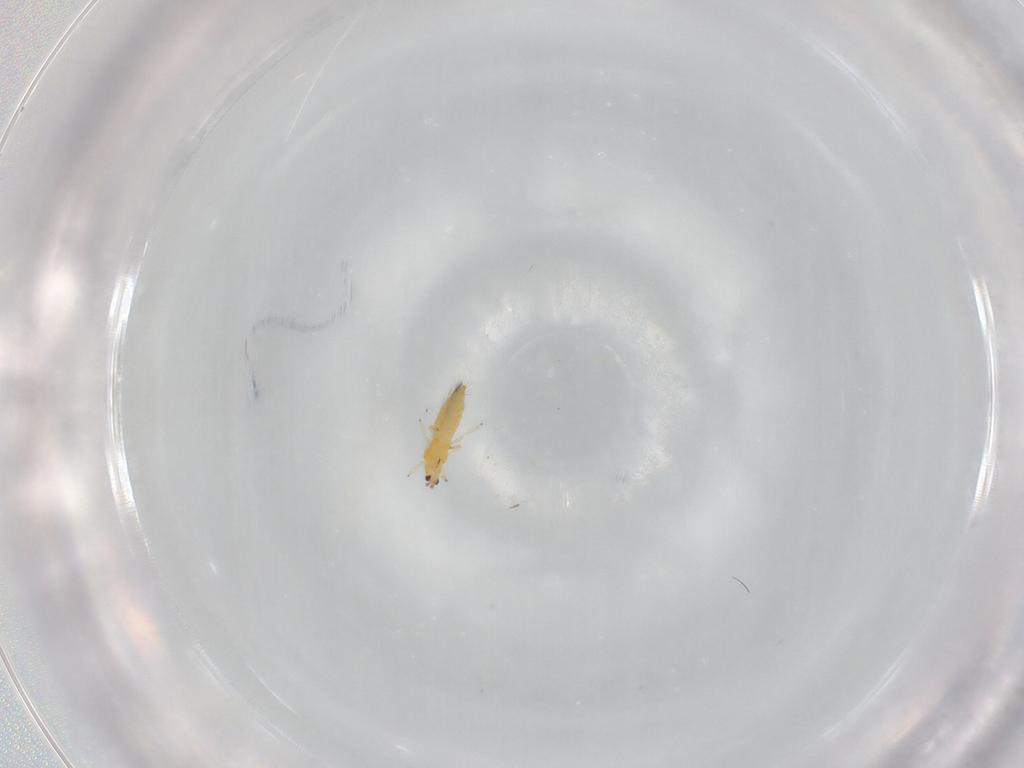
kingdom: Animalia
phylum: Arthropoda
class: Insecta
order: Thysanoptera
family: Thripidae
